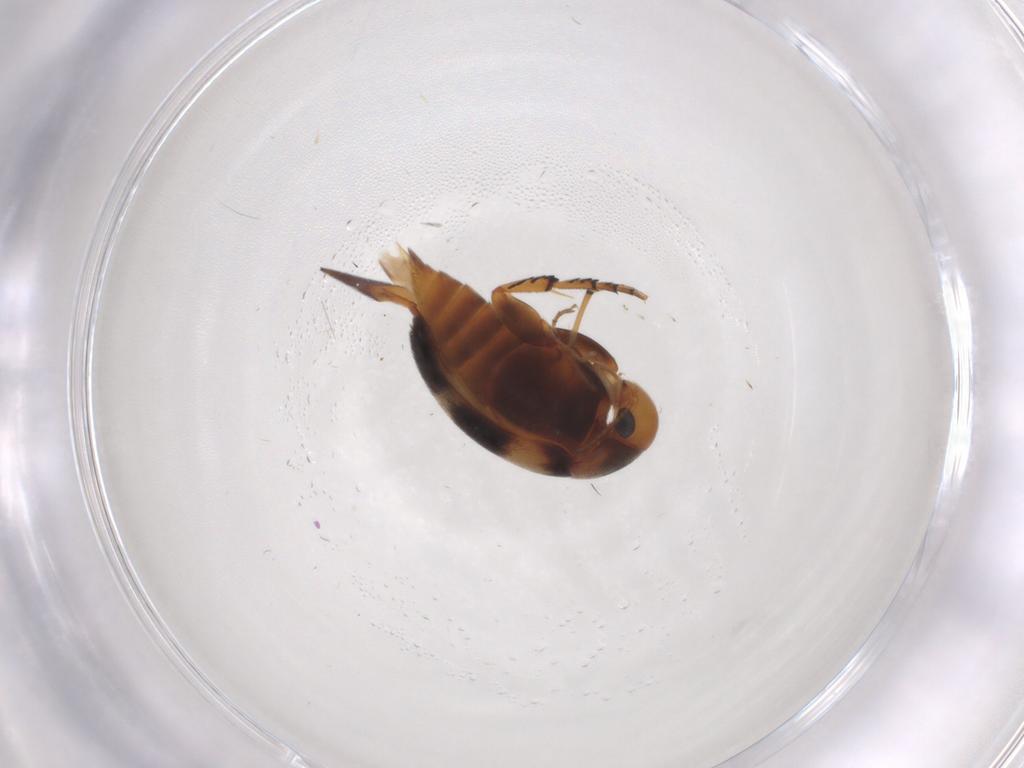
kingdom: Animalia
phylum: Arthropoda
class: Insecta
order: Coleoptera
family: Mordellidae
